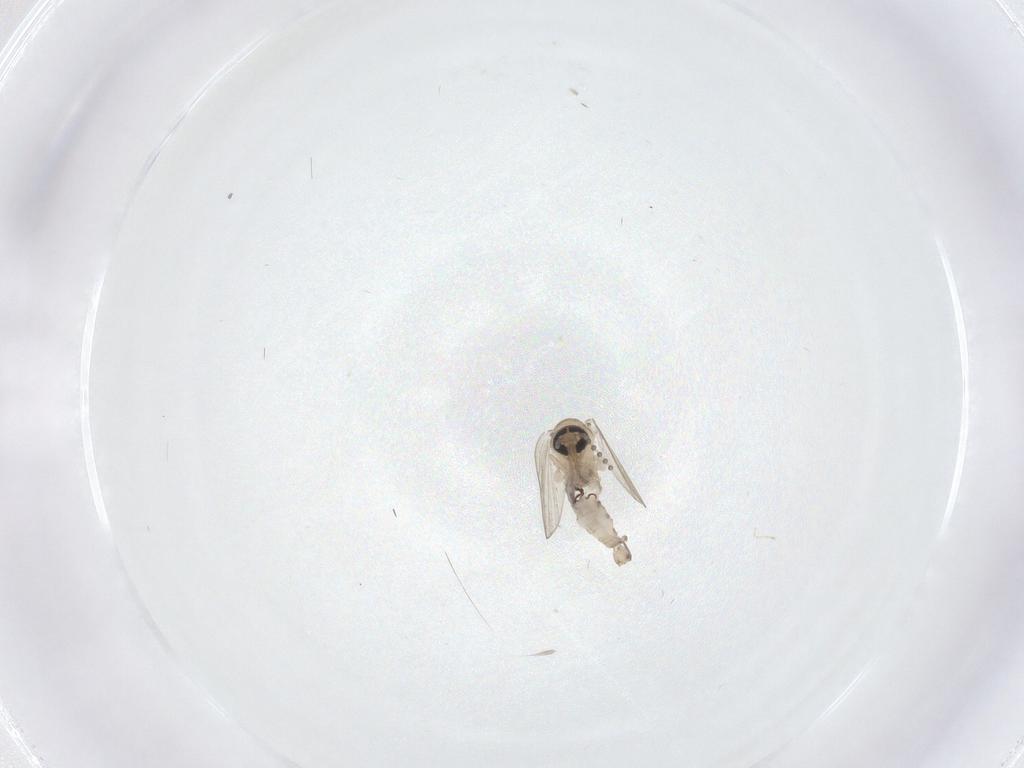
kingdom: Animalia
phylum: Arthropoda
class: Insecta
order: Diptera
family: Psychodidae
